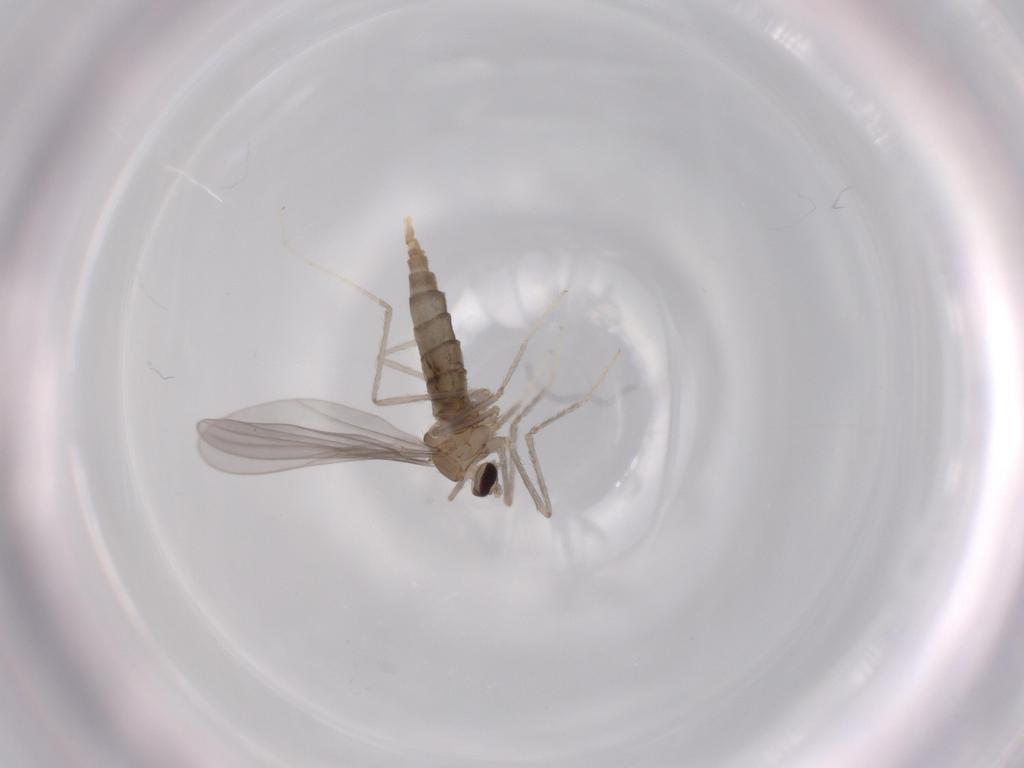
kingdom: Animalia
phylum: Arthropoda
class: Insecta
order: Diptera
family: Cecidomyiidae
